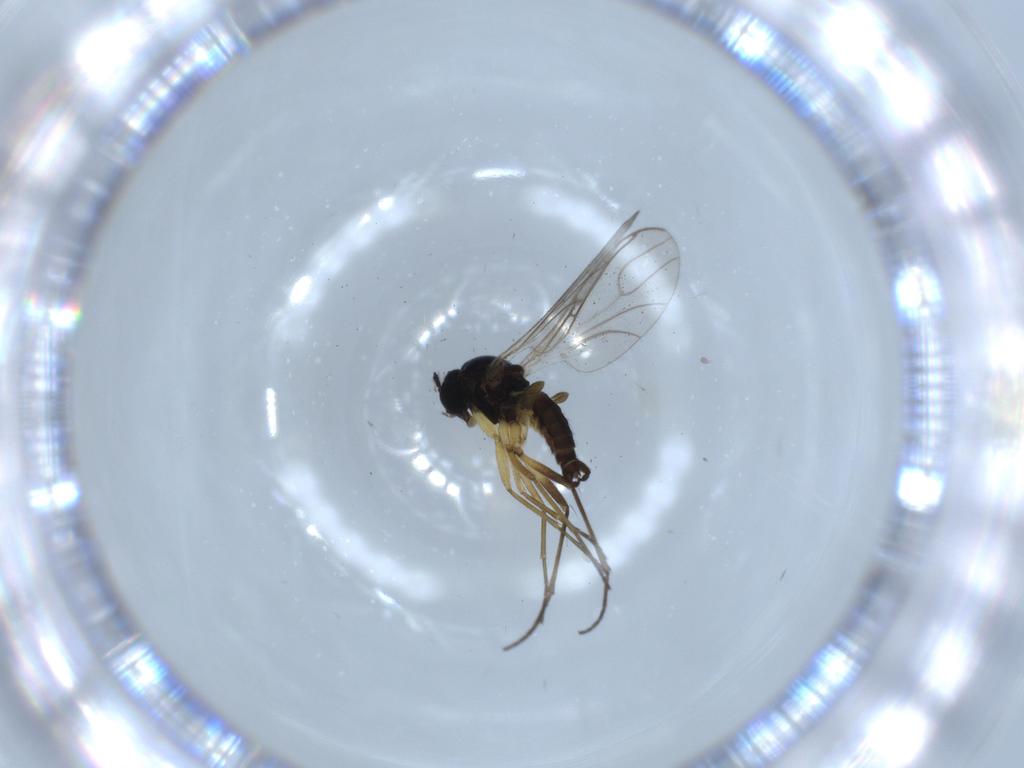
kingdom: Animalia
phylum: Arthropoda
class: Insecta
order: Diptera
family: Sciaridae
